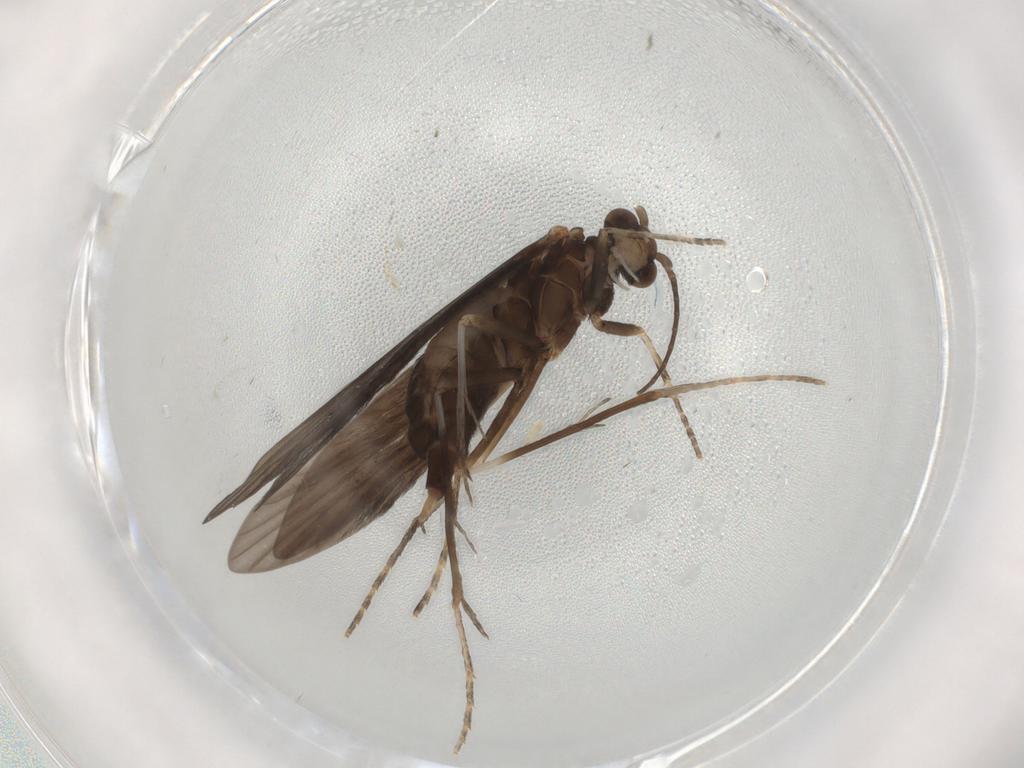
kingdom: Animalia
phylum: Arthropoda
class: Insecta
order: Trichoptera
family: Xiphocentronidae
